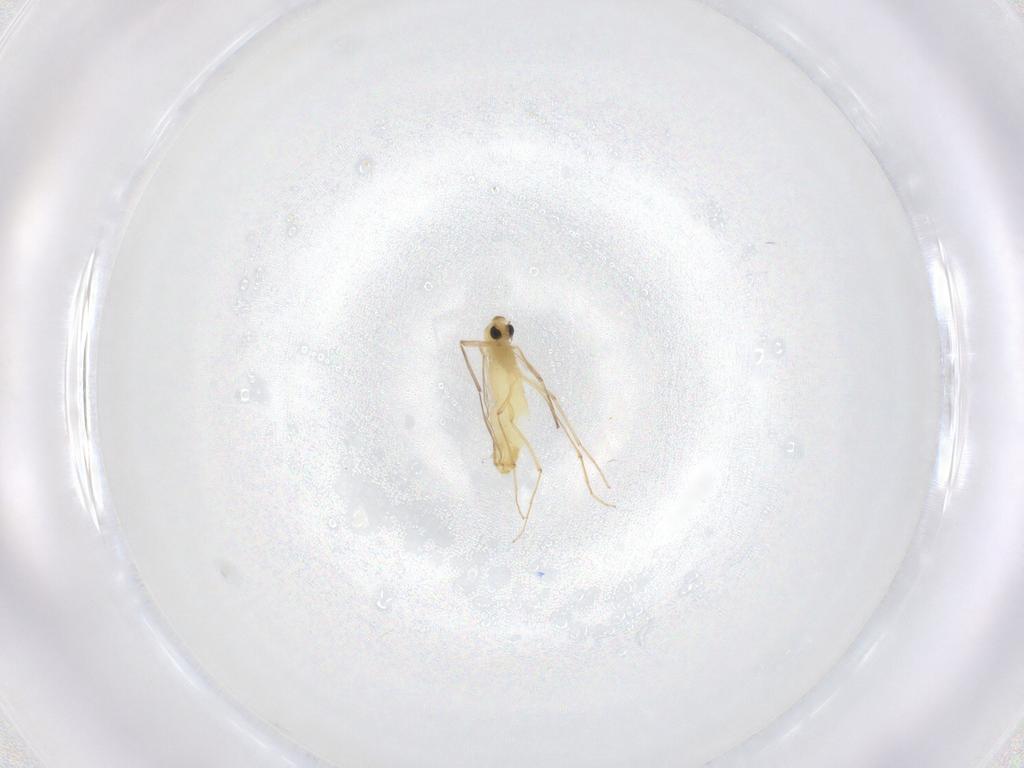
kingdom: Animalia
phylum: Arthropoda
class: Insecta
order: Diptera
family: Chironomidae
